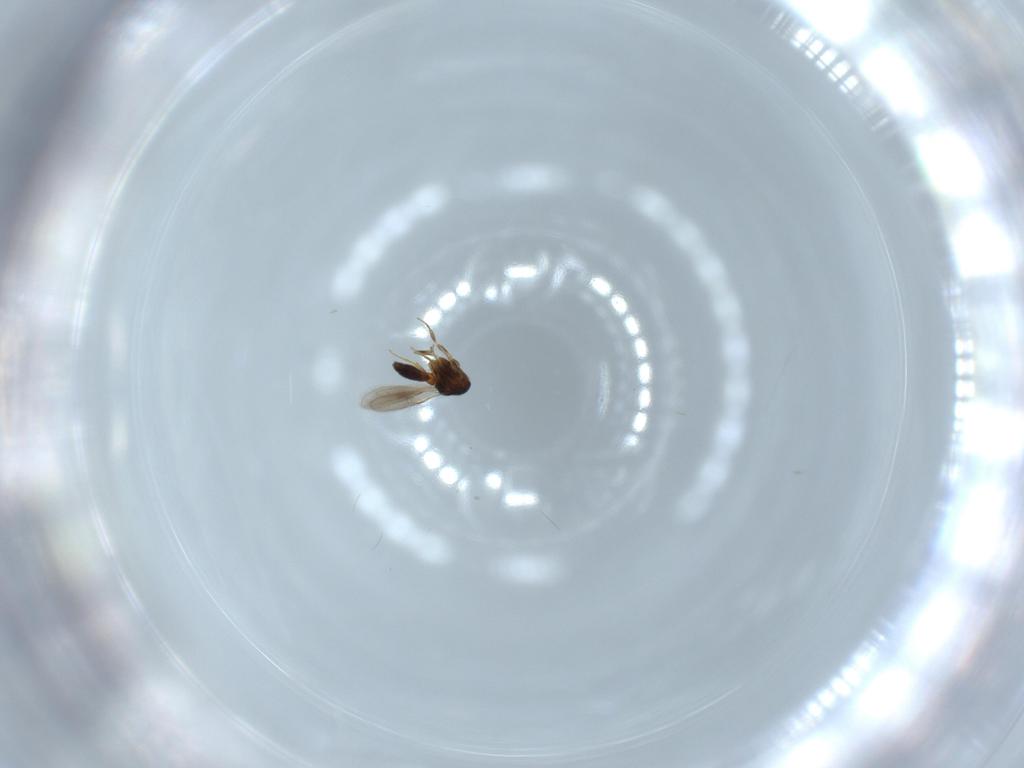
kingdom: Animalia
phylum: Arthropoda
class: Insecta
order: Hymenoptera
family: Scelionidae
